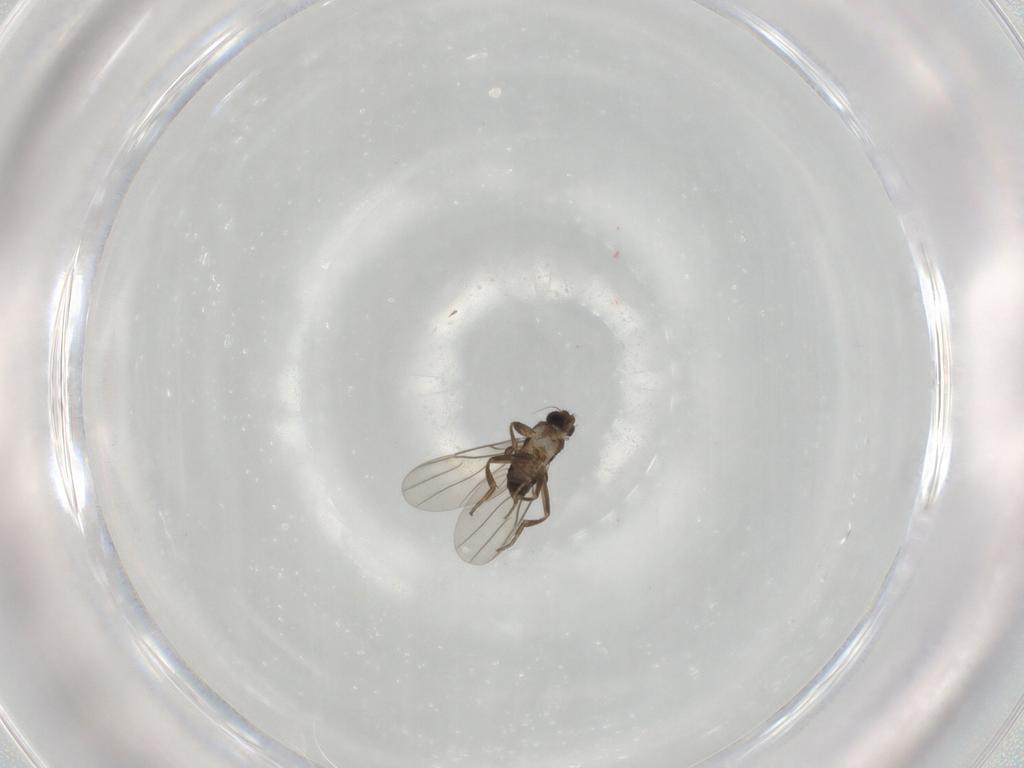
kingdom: Animalia
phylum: Arthropoda
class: Insecta
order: Diptera
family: Phoridae
